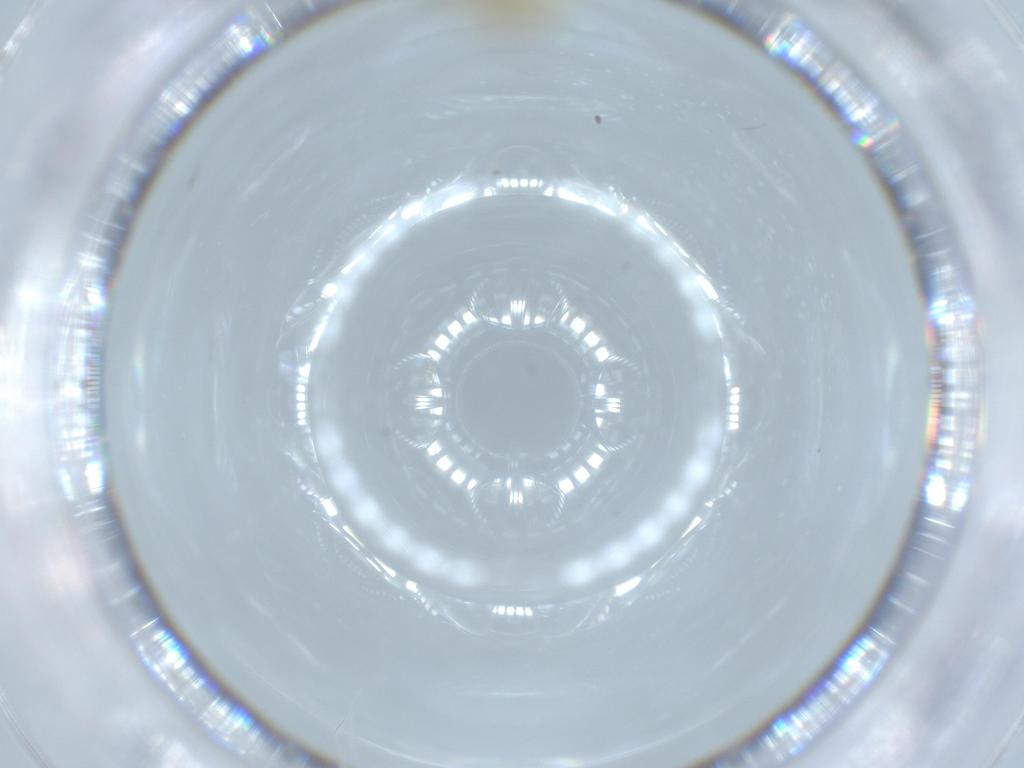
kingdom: Animalia
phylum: Arthropoda
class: Insecta
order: Diptera
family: Chironomidae
